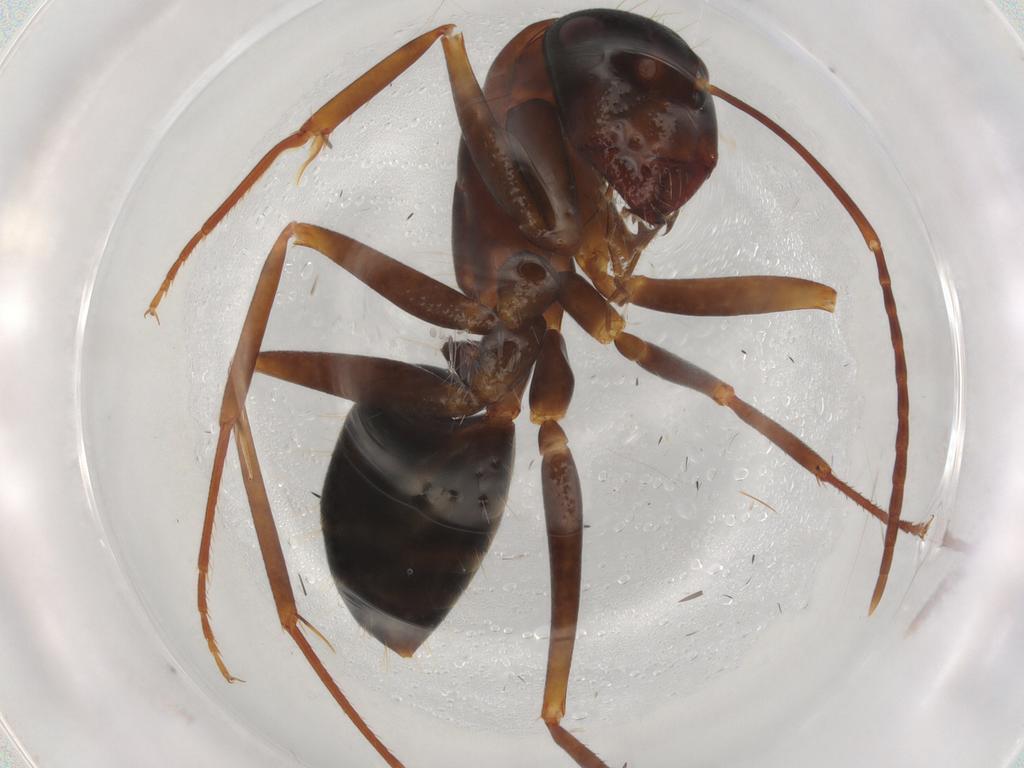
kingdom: Animalia
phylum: Arthropoda
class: Insecta
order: Hymenoptera
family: Formicidae
